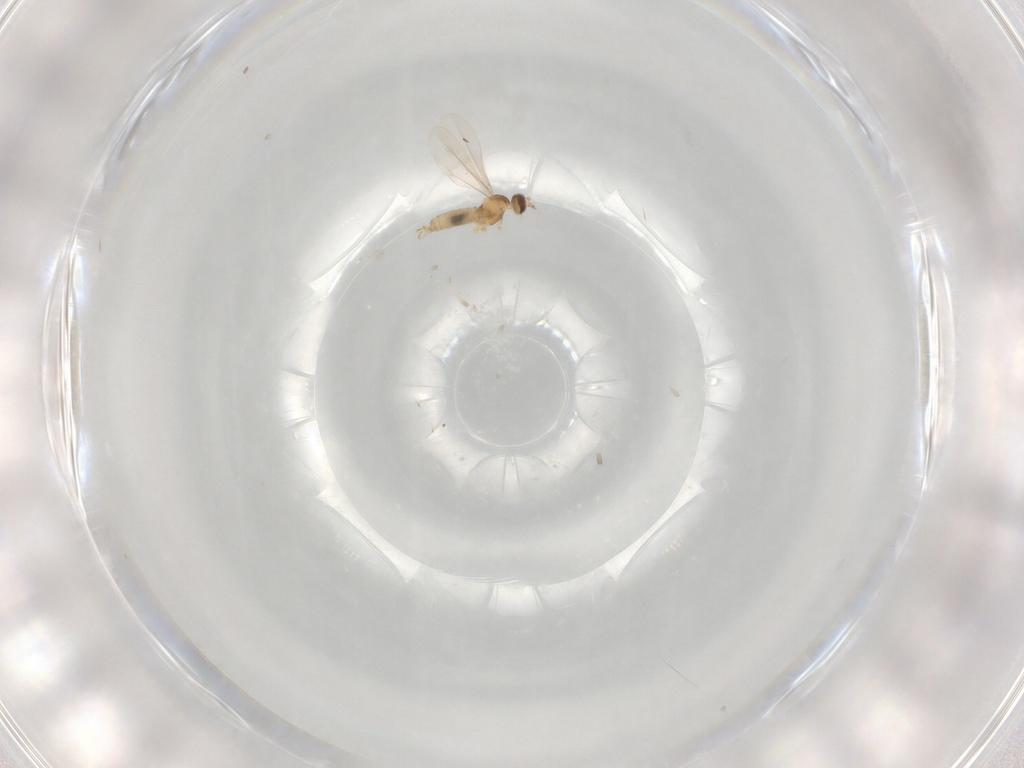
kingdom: Animalia
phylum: Arthropoda
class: Insecta
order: Diptera
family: Cecidomyiidae
